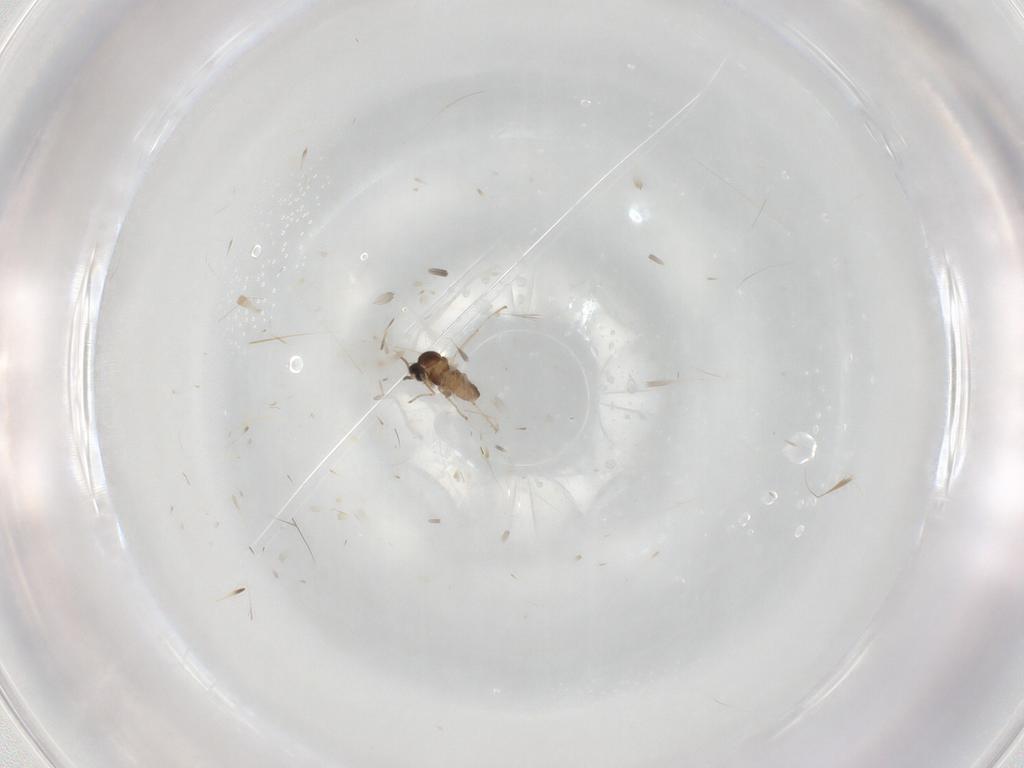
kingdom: Animalia
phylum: Arthropoda
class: Insecta
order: Diptera
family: Cecidomyiidae
